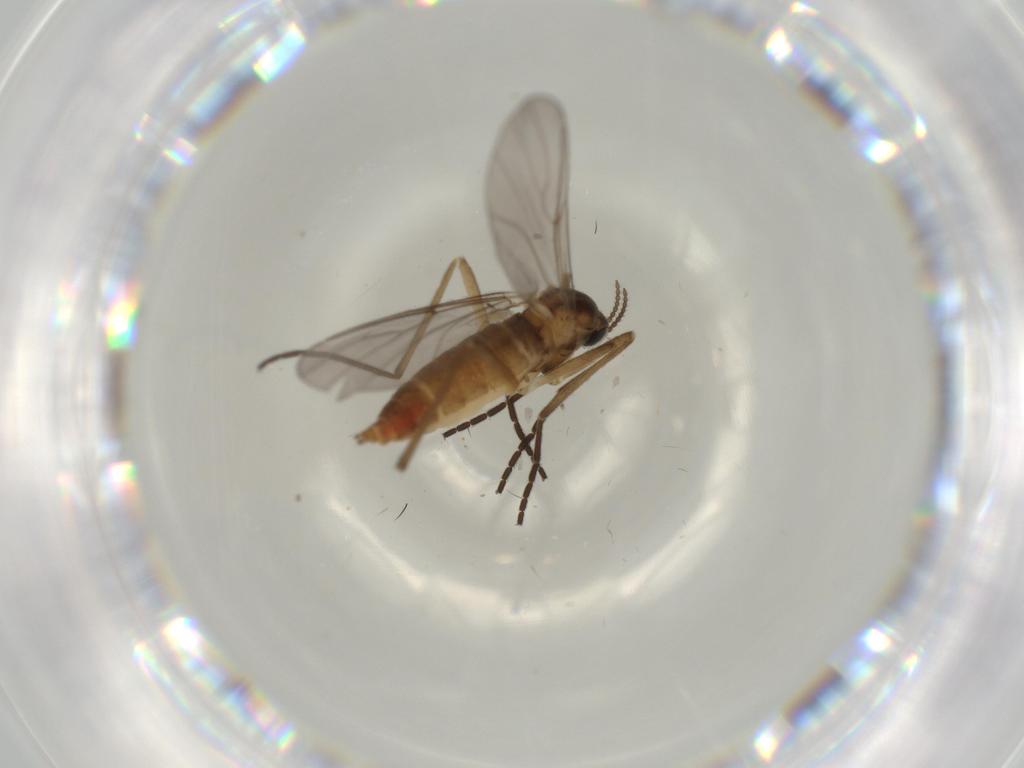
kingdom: Animalia
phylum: Arthropoda
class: Insecta
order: Diptera
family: Cecidomyiidae
